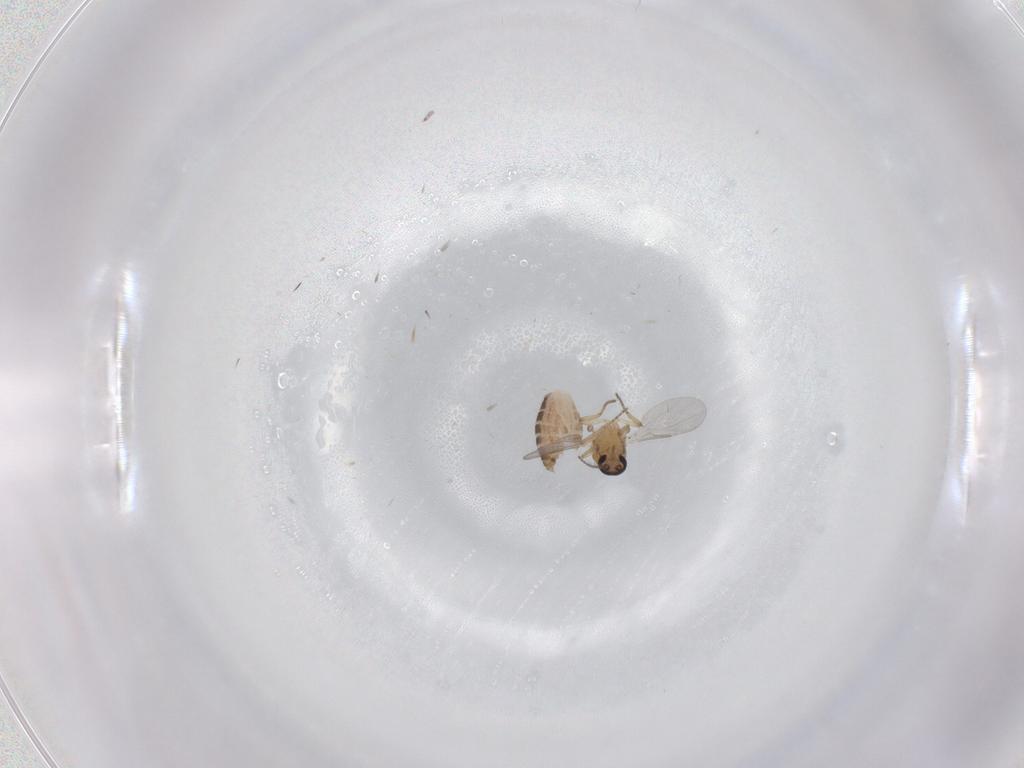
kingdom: Animalia
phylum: Arthropoda
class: Insecta
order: Diptera
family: Ceratopogonidae
